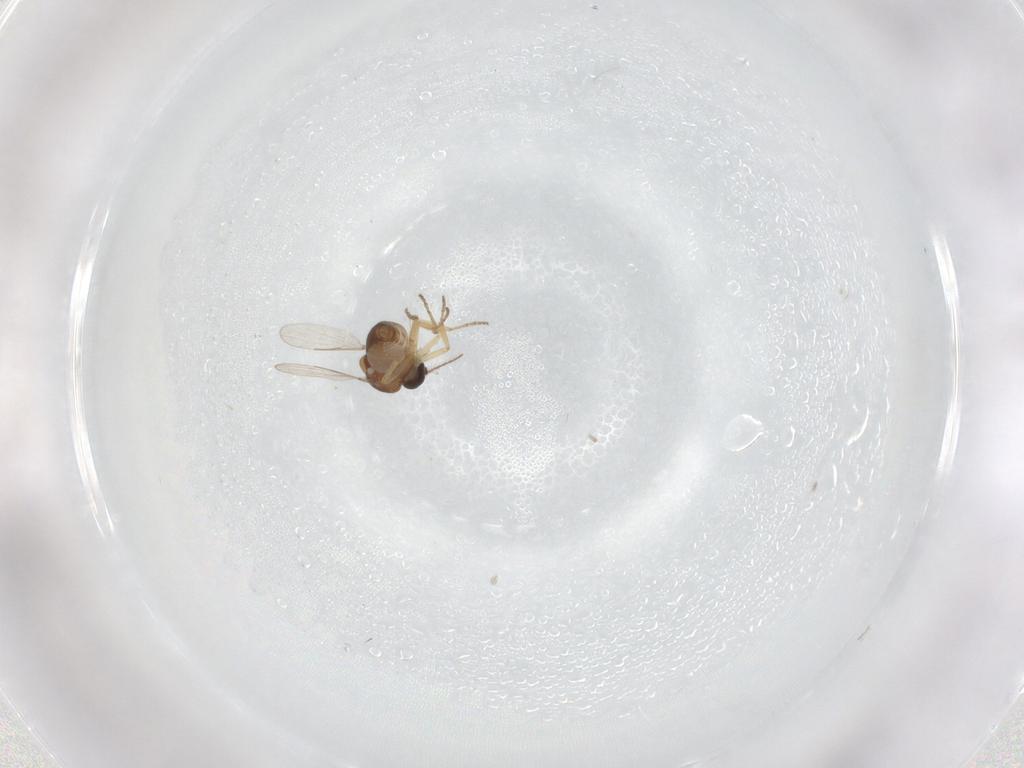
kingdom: Animalia
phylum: Arthropoda
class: Insecta
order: Diptera
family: Ceratopogonidae
